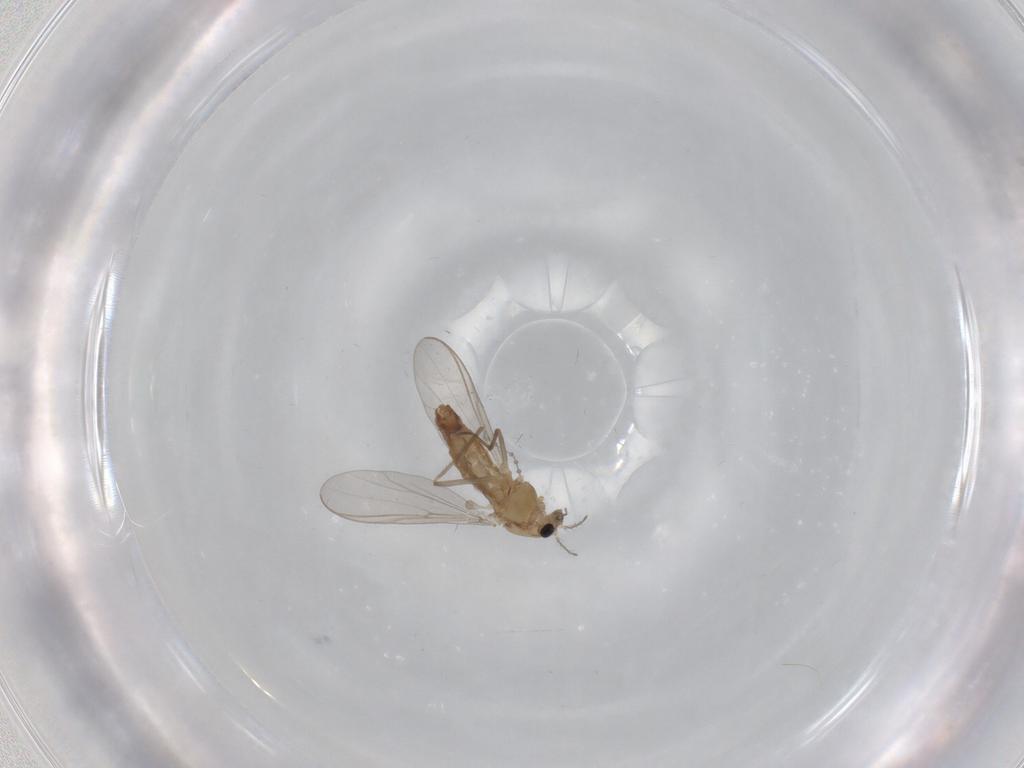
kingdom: Animalia
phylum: Arthropoda
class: Insecta
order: Diptera
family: Chironomidae
